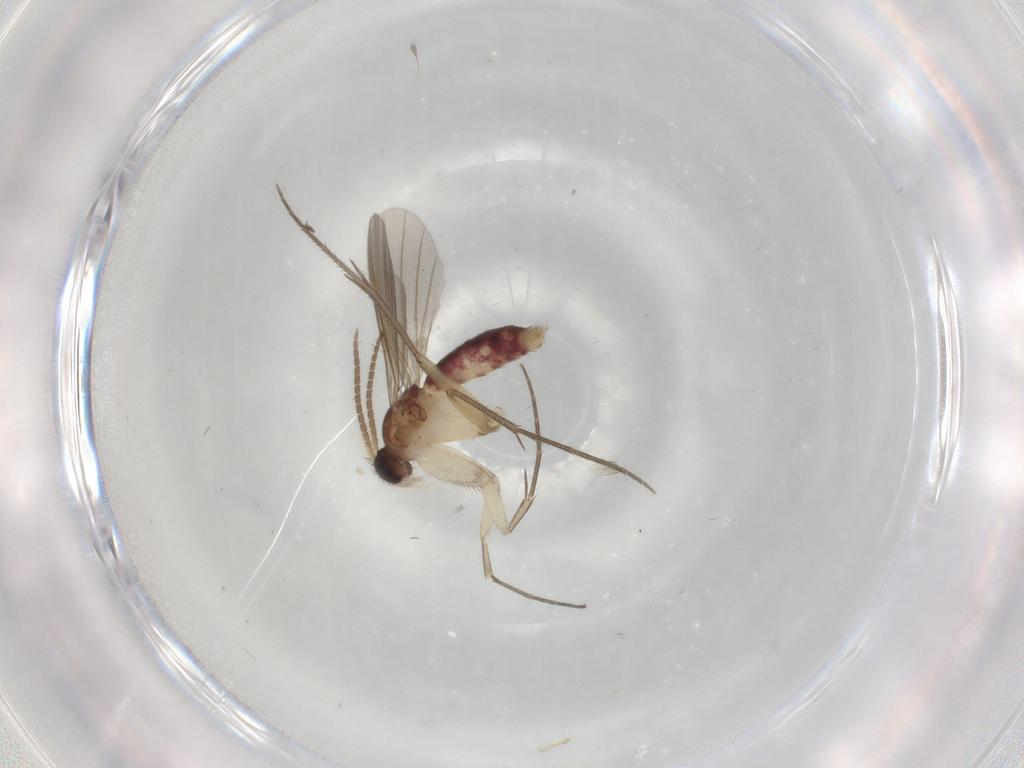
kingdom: Animalia
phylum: Arthropoda
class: Insecta
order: Diptera
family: Mycetophilidae
